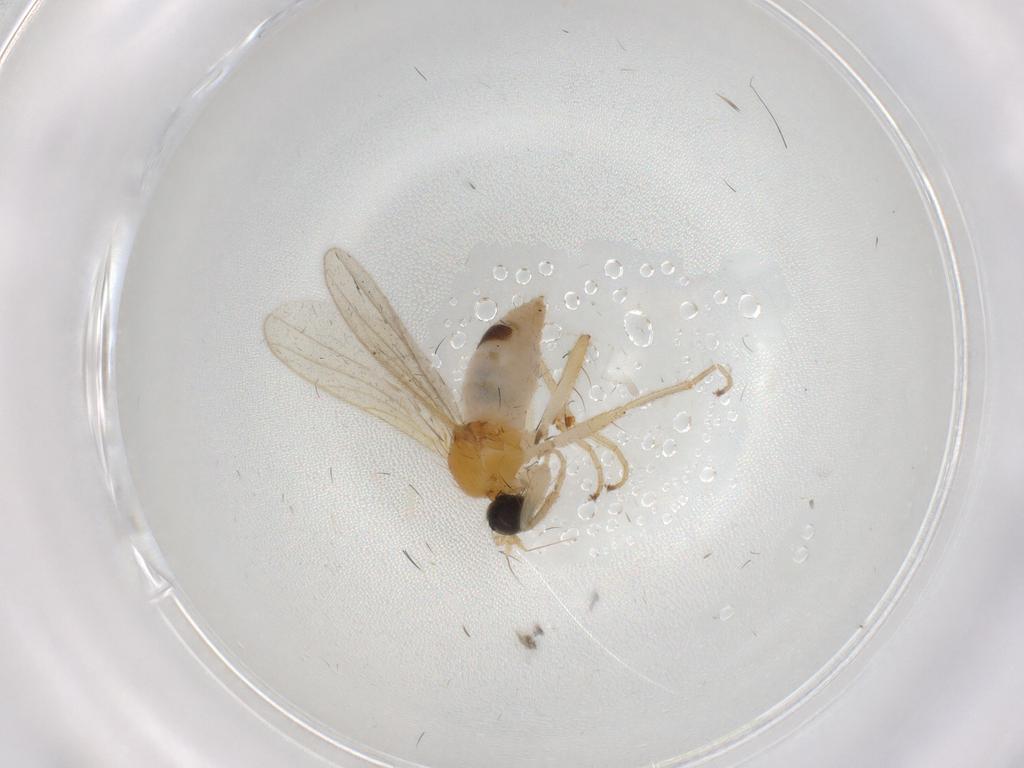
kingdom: Animalia
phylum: Arthropoda
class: Insecta
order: Diptera
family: Hybotidae
